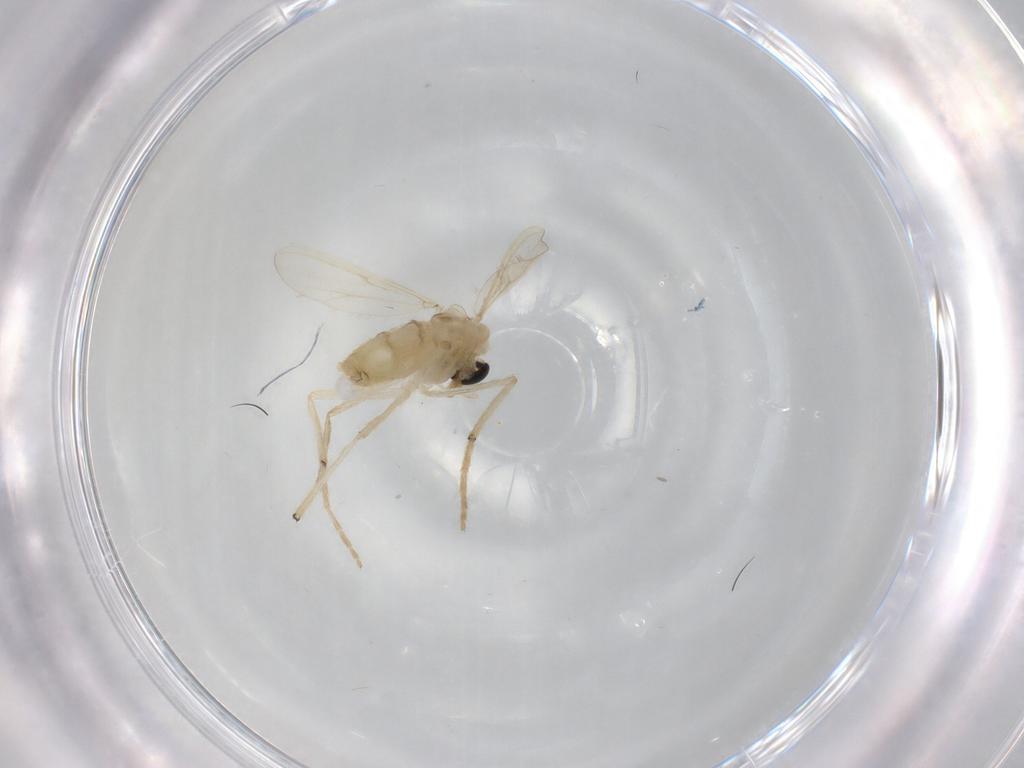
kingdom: Animalia
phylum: Arthropoda
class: Insecta
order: Diptera
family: Chironomidae
